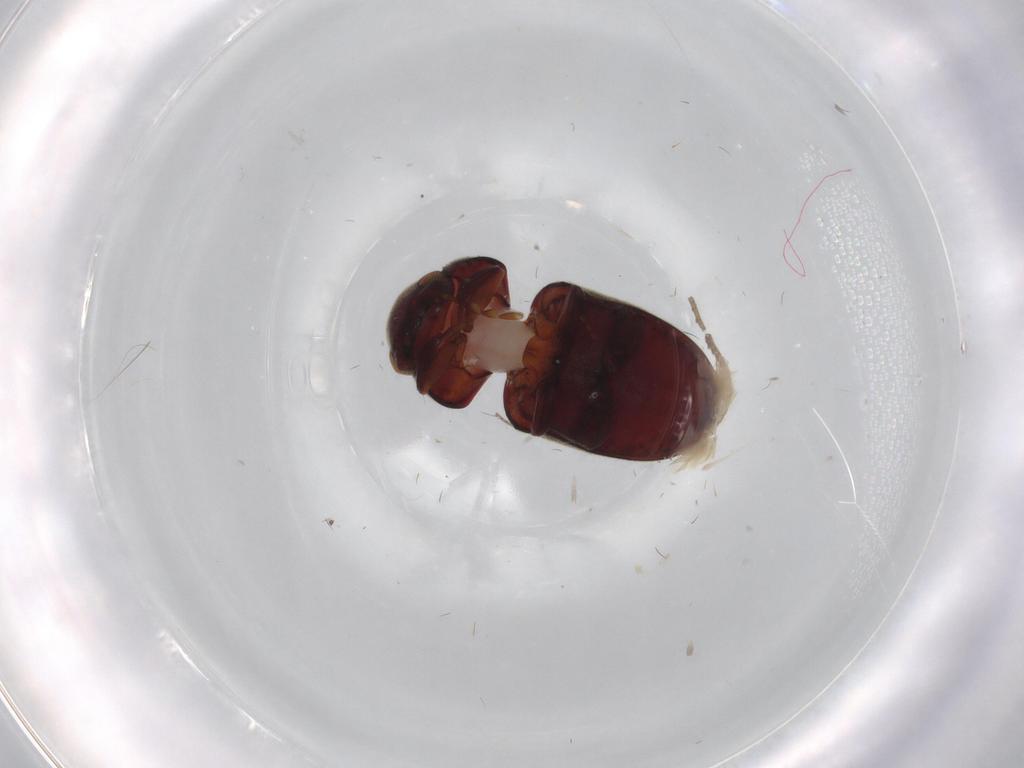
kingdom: Animalia
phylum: Arthropoda
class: Insecta
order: Coleoptera
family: Ptinidae
